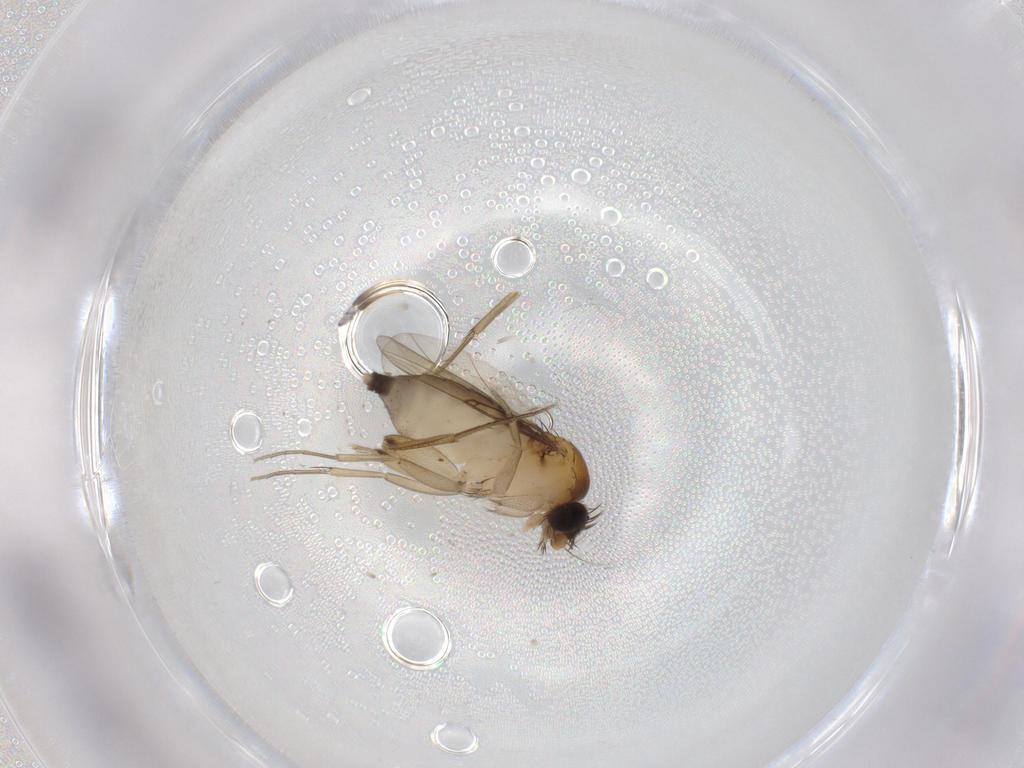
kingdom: Animalia
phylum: Arthropoda
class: Insecta
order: Diptera
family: Phoridae
